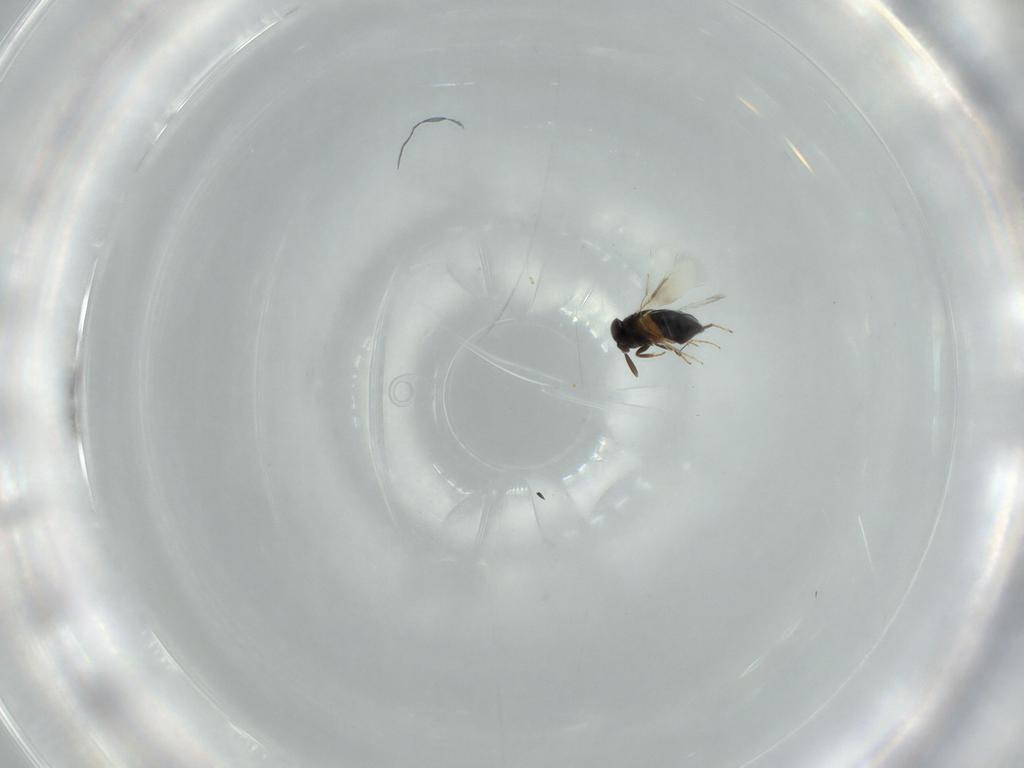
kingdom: Animalia
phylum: Arthropoda
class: Insecta
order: Hymenoptera
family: Signiphoridae
